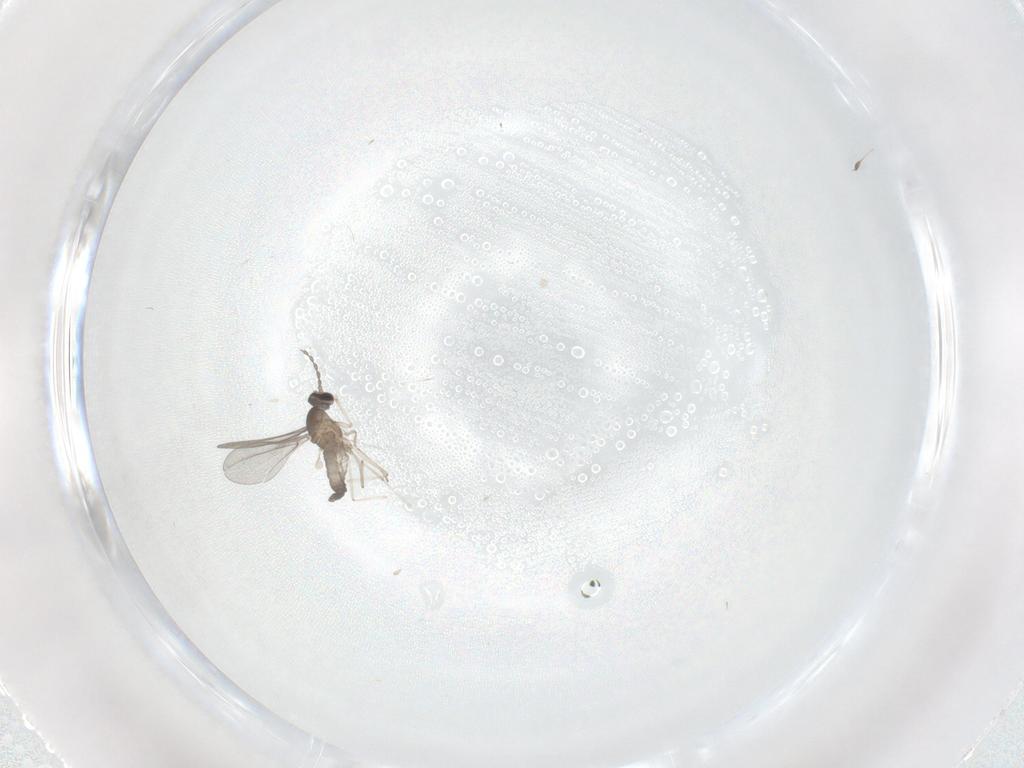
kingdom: Animalia
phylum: Arthropoda
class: Insecta
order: Diptera
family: Cecidomyiidae
